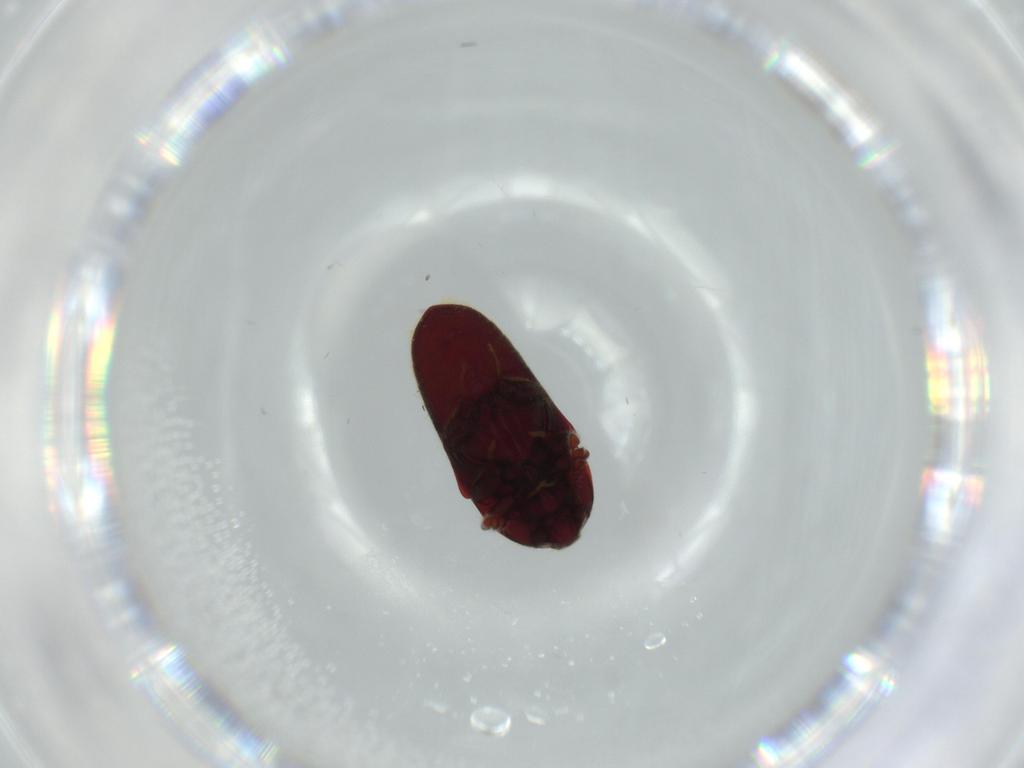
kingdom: Animalia
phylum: Arthropoda
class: Insecta
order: Coleoptera
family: Throscidae
